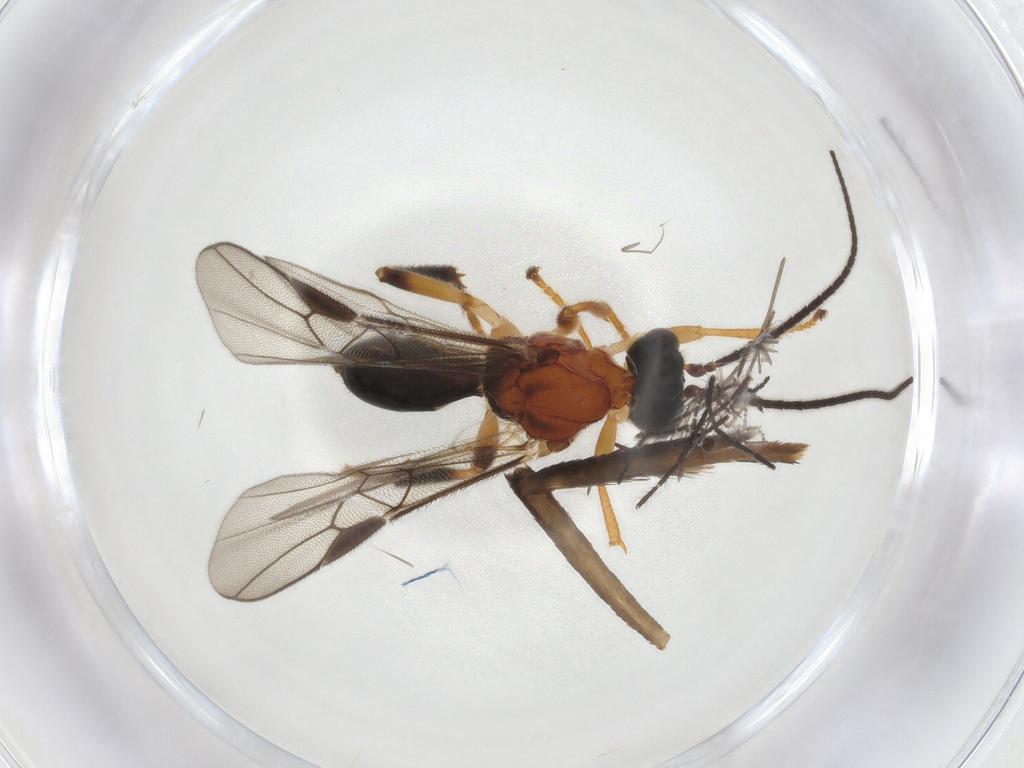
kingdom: Animalia
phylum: Arthropoda
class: Insecta
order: Hymenoptera
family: Braconidae
